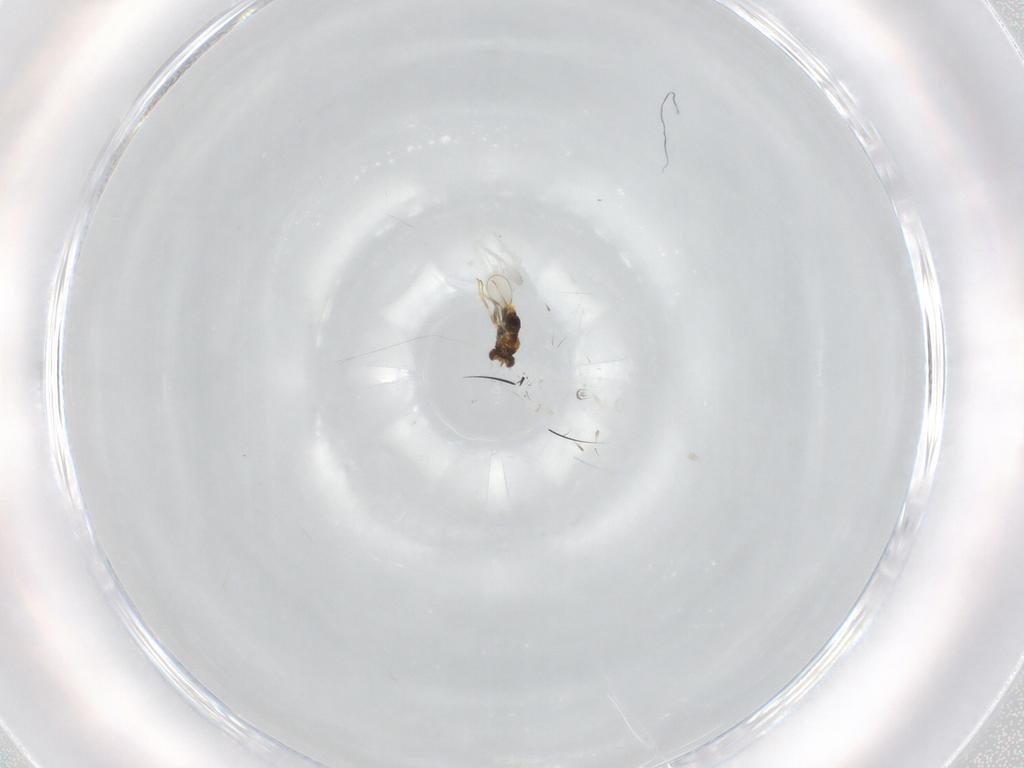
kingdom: Animalia
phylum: Arthropoda
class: Insecta
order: Hymenoptera
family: Aphelinidae
